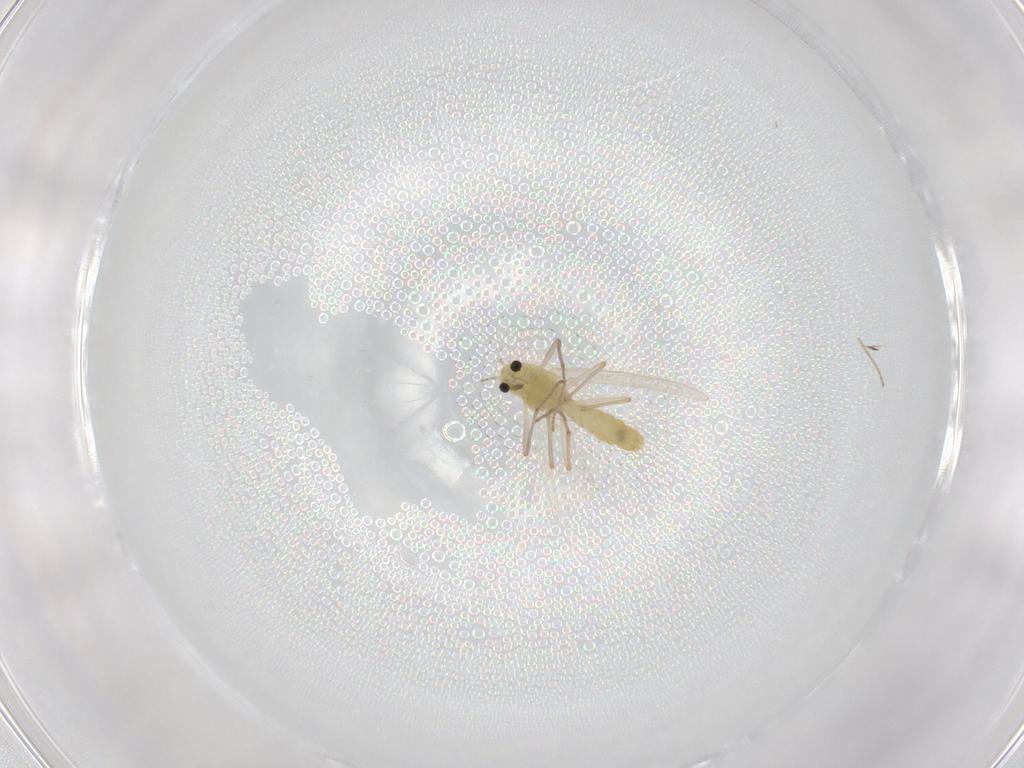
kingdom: Animalia
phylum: Arthropoda
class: Insecta
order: Diptera
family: Chironomidae
